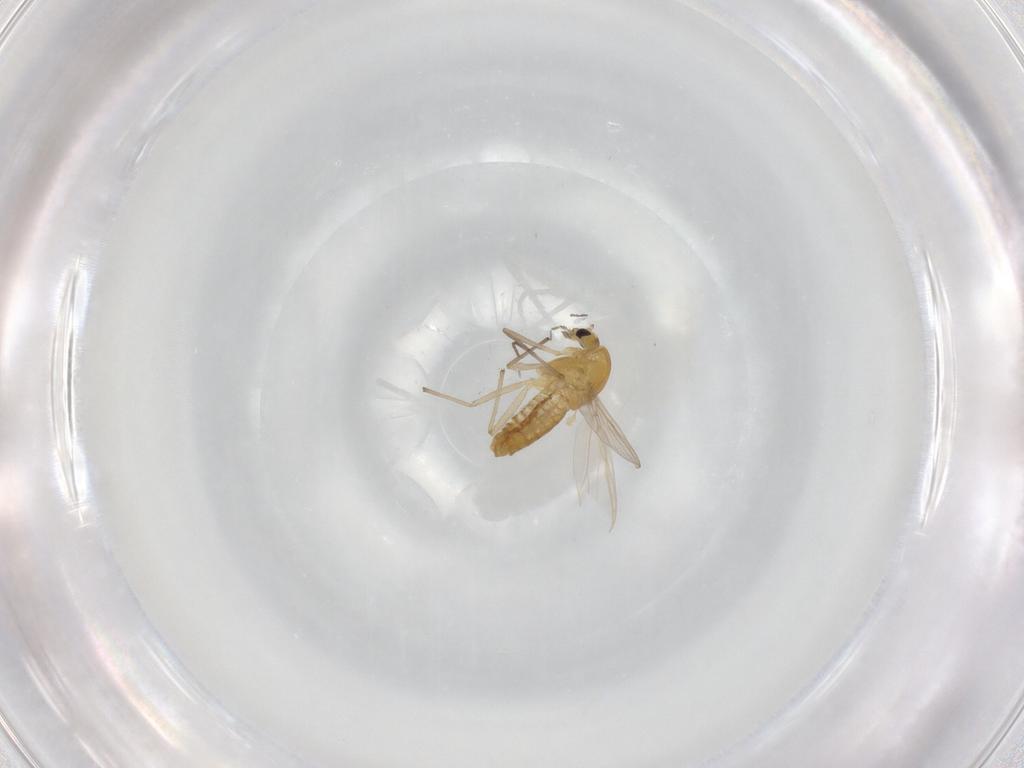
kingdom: Animalia
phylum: Arthropoda
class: Insecta
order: Diptera
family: Chironomidae
